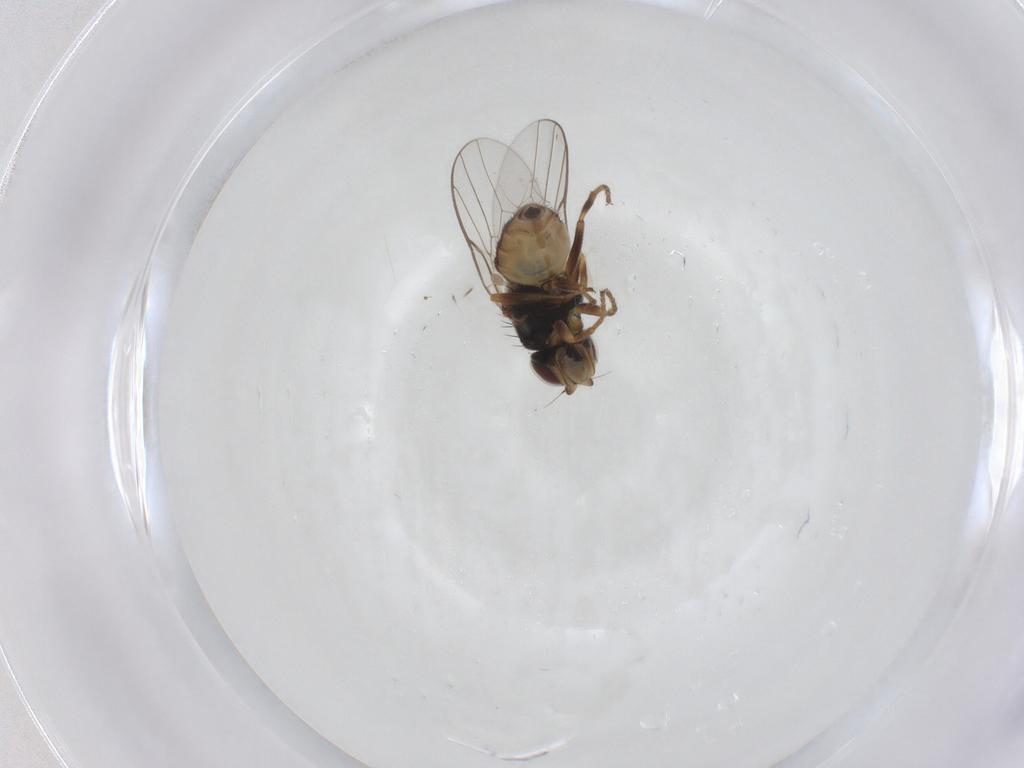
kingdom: Animalia
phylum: Arthropoda
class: Insecta
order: Diptera
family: Chloropidae
